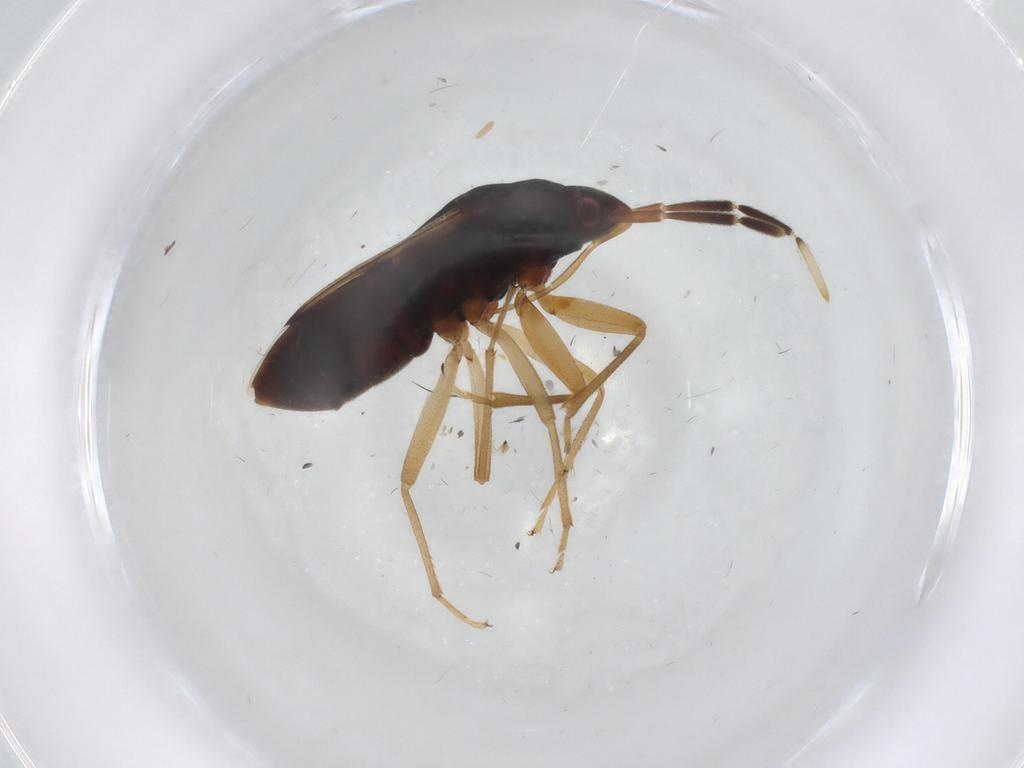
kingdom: Animalia
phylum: Arthropoda
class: Insecta
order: Hemiptera
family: Rhyparochromidae
